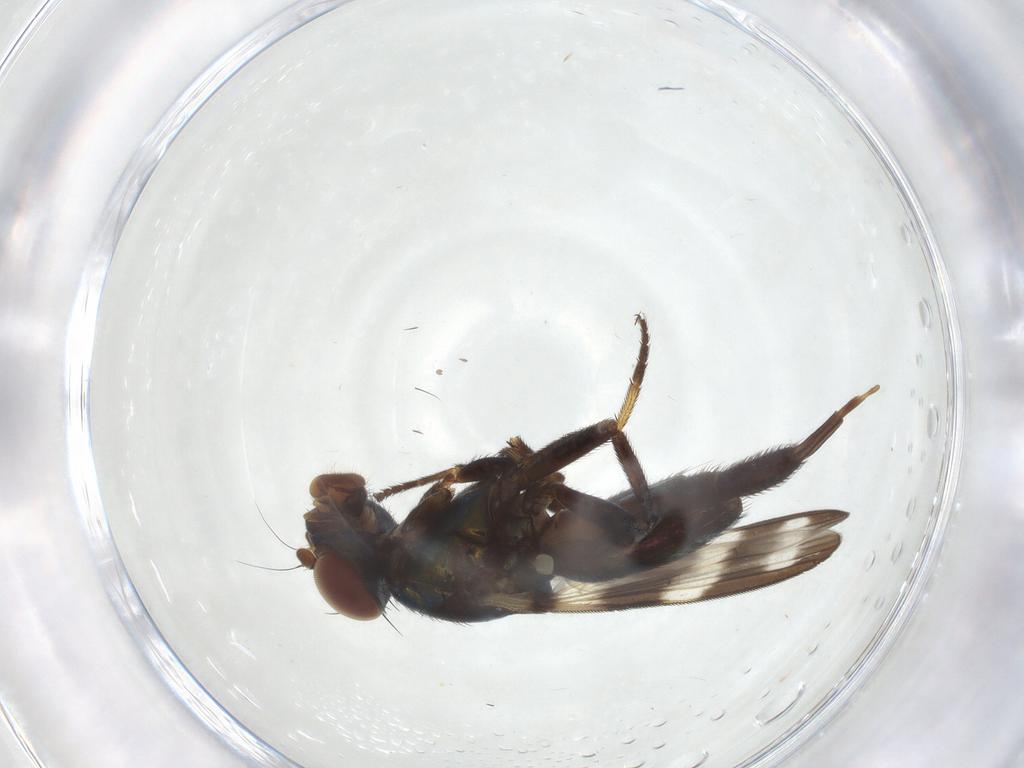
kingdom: Animalia
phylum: Arthropoda
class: Insecta
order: Diptera
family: Ulidiidae
